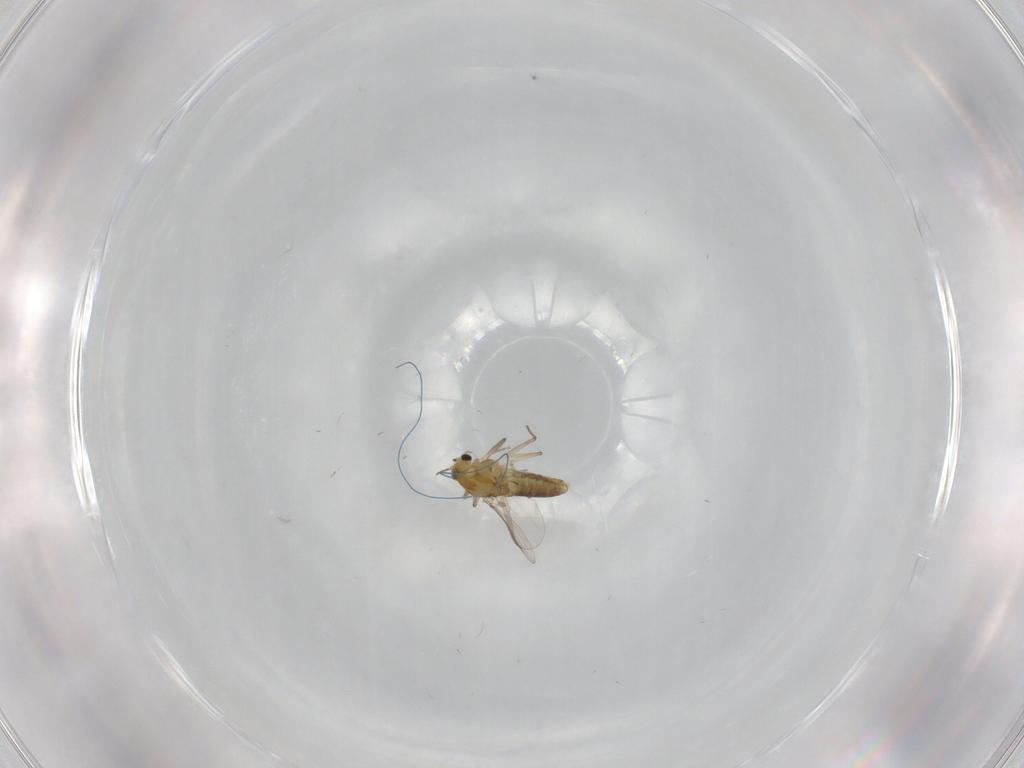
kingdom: Animalia
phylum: Arthropoda
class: Insecta
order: Diptera
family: Chironomidae
